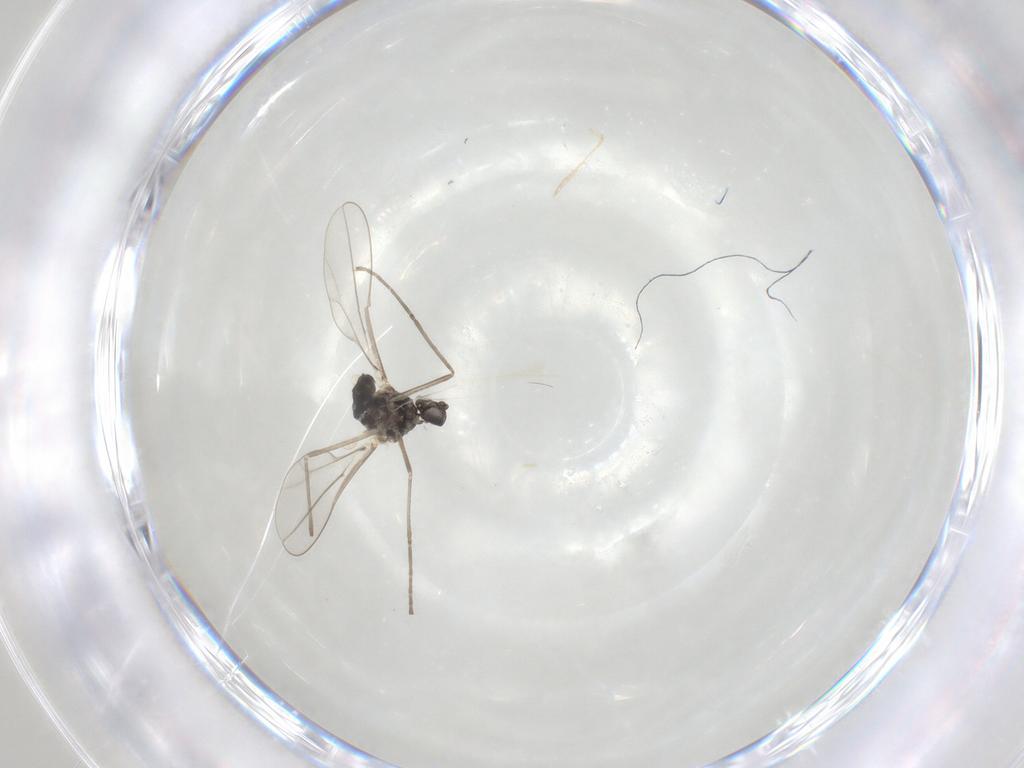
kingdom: Animalia
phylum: Arthropoda
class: Insecta
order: Diptera
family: Cecidomyiidae
